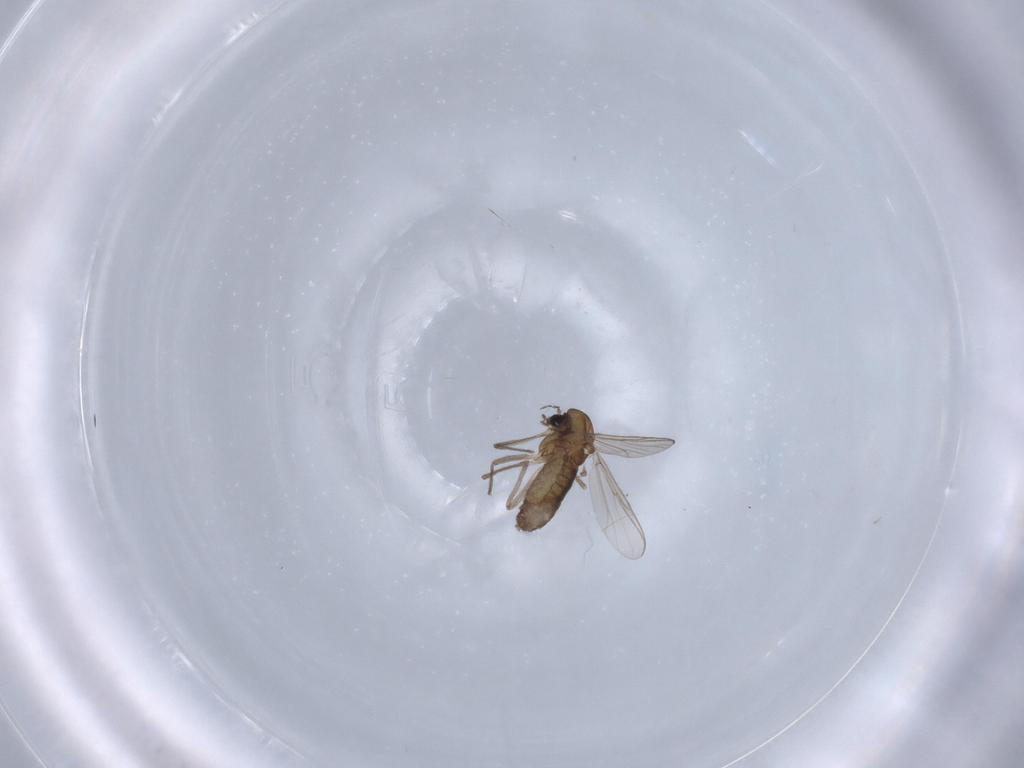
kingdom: Animalia
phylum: Arthropoda
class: Insecta
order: Diptera
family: Chironomidae
